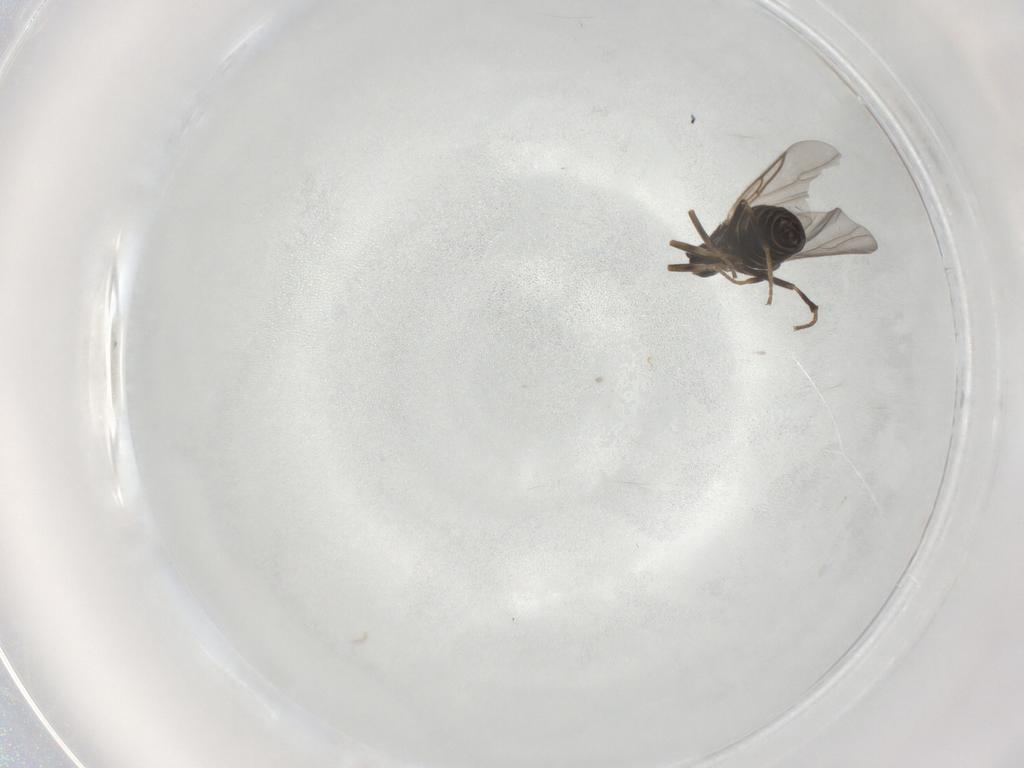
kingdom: Animalia
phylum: Arthropoda
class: Insecta
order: Diptera
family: Scatopsidae
